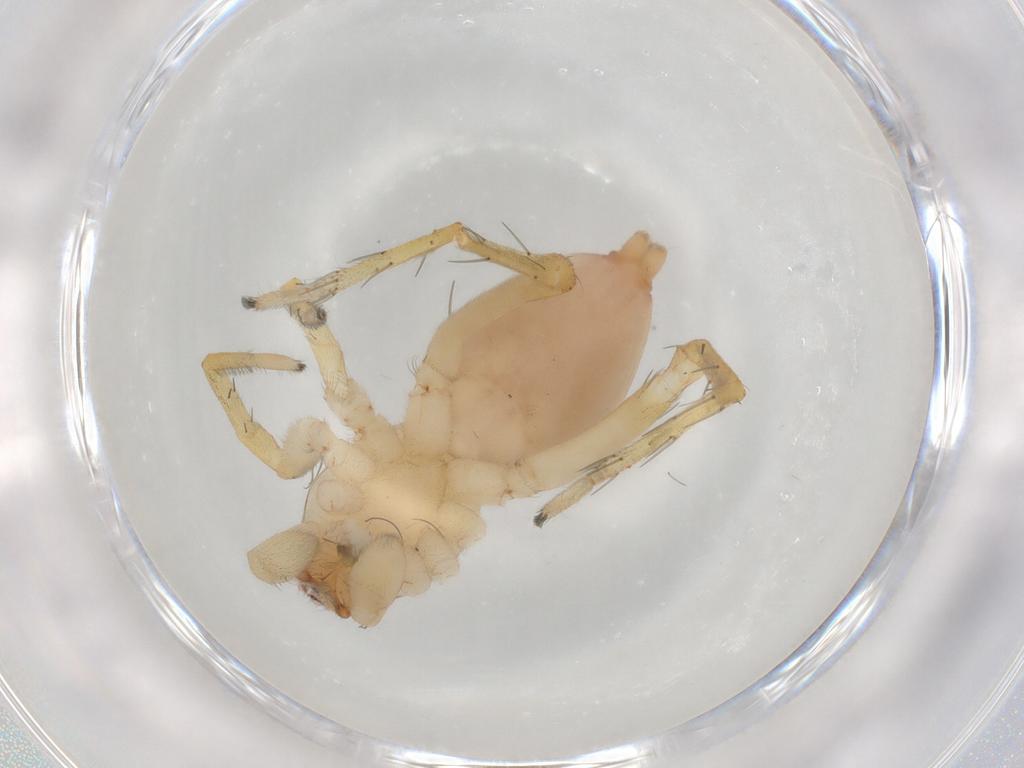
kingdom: Animalia
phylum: Arthropoda
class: Arachnida
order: Araneae
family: Clubionidae
